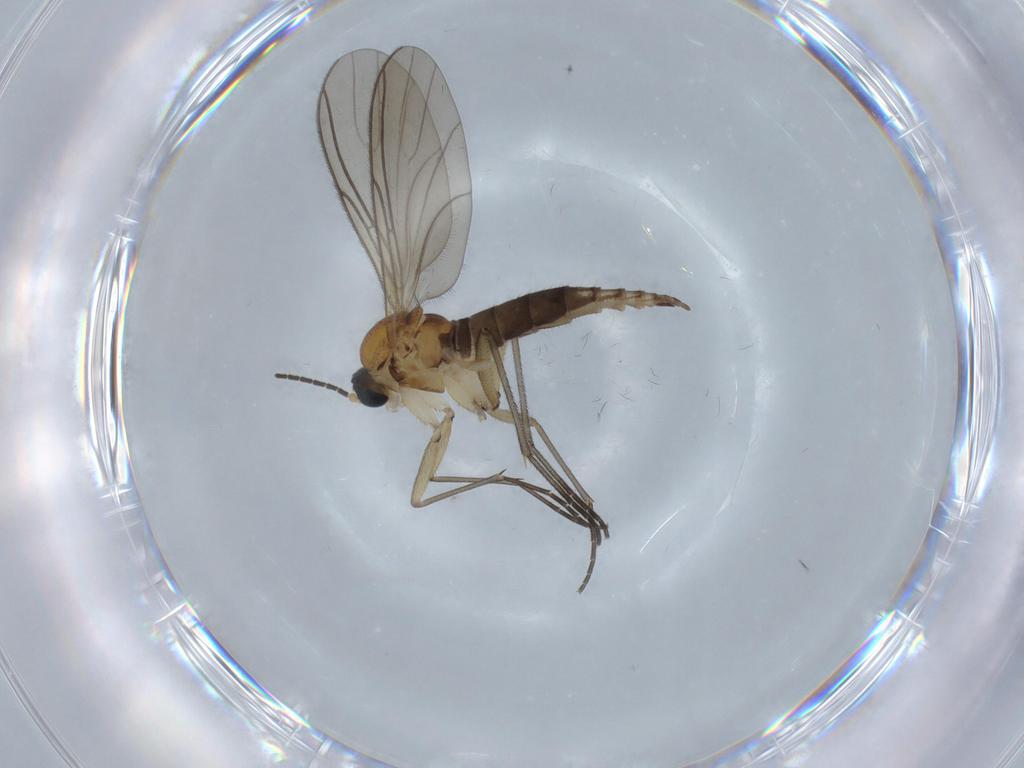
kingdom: Animalia
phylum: Arthropoda
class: Insecta
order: Diptera
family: Sciaridae
